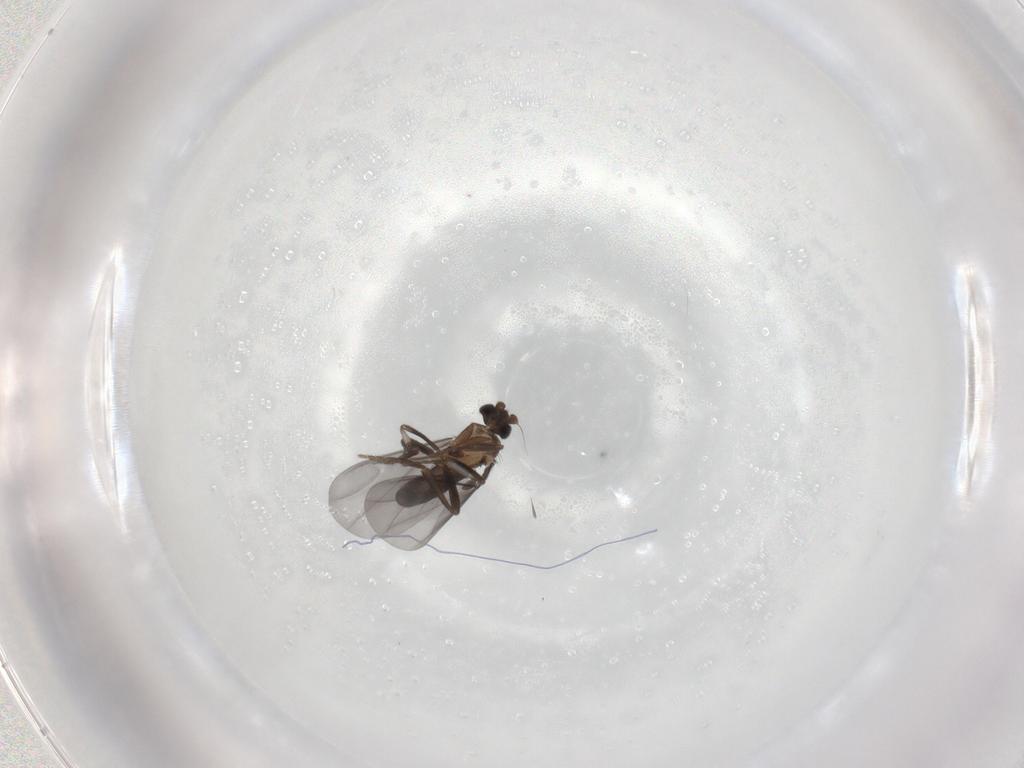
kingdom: Animalia
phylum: Arthropoda
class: Insecta
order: Diptera
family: Phoridae
